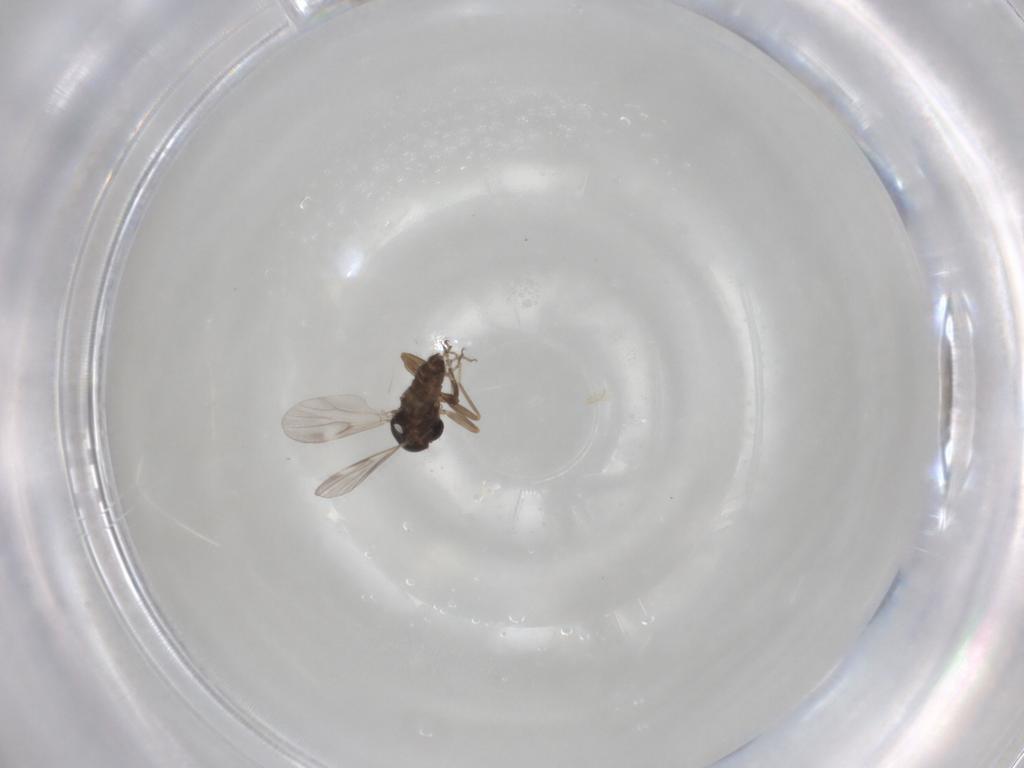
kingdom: Animalia
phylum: Arthropoda
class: Insecta
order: Diptera
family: Ceratopogonidae
